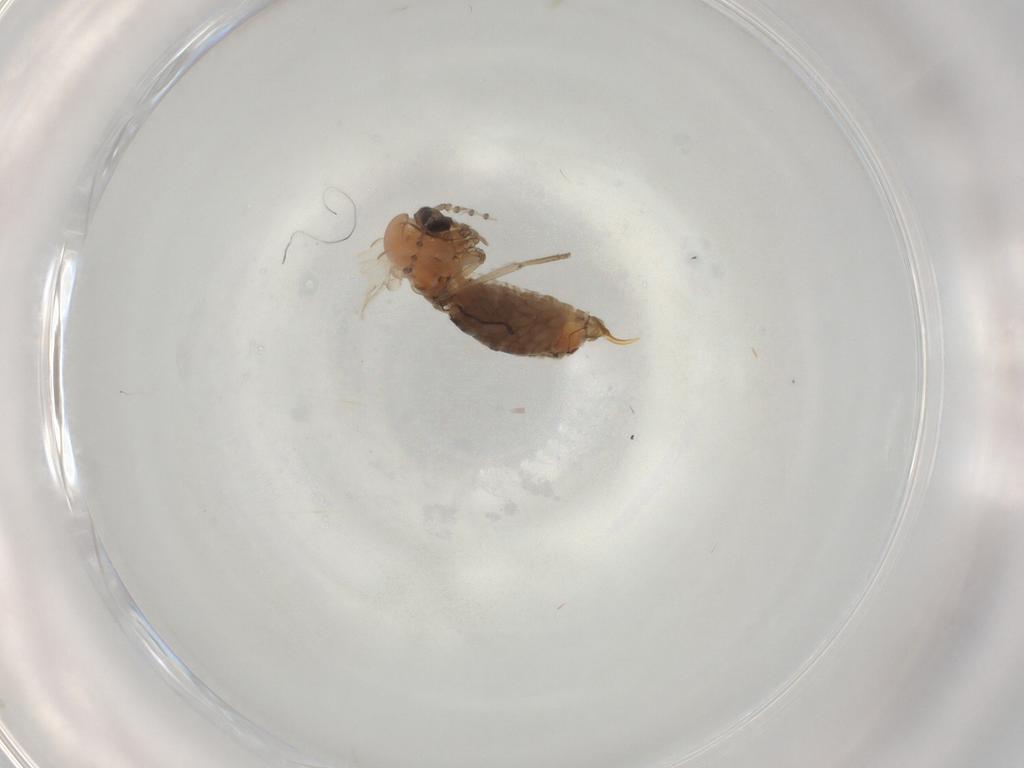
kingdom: Animalia
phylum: Arthropoda
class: Insecta
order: Diptera
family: Psychodidae
